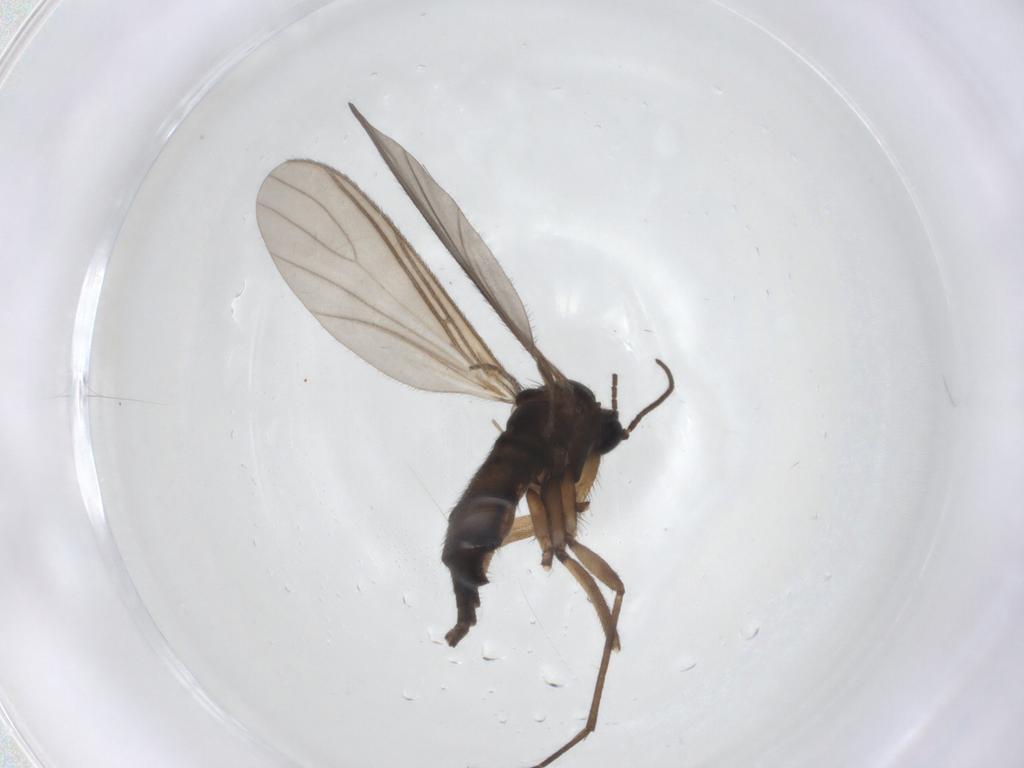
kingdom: Animalia
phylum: Arthropoda
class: Insecta
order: Diptera
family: Sciaridae
